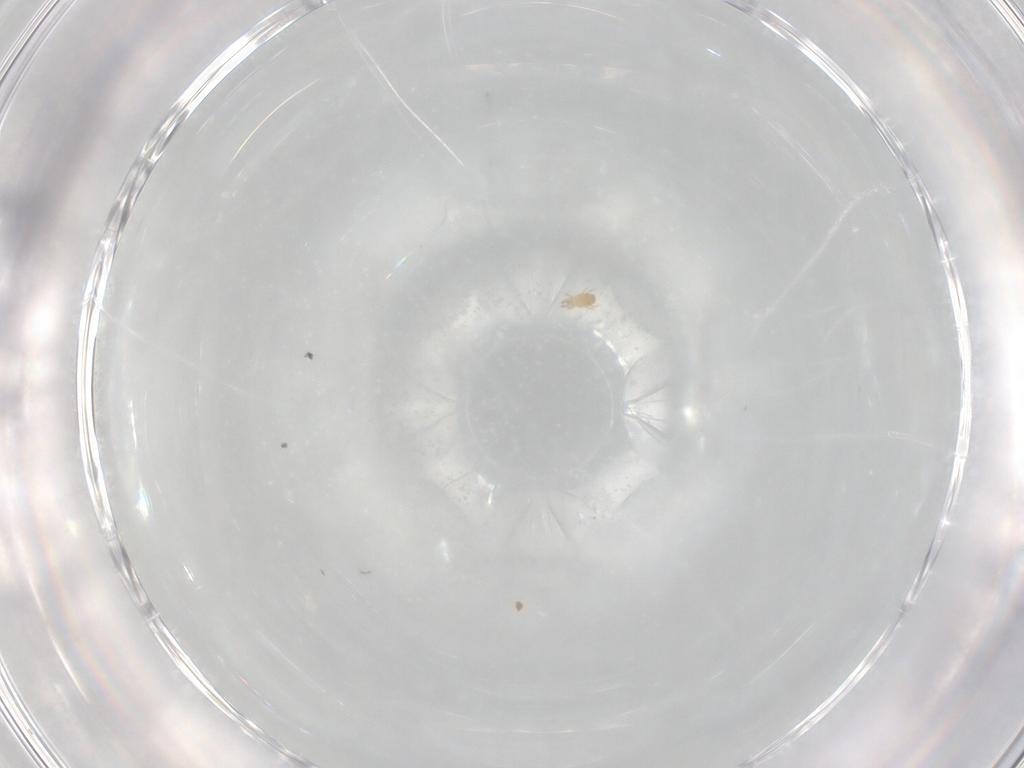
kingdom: Animalia
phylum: Arthropoda
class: Arachnida
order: Trombidiformes
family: Pygmephoridae
